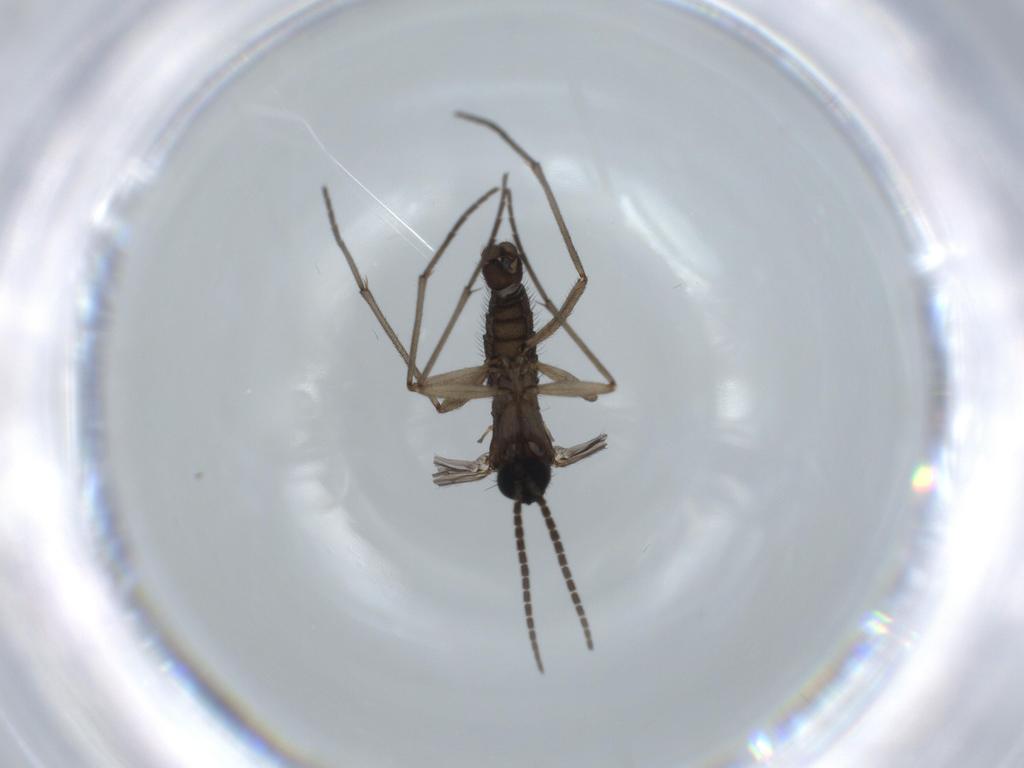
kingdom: Animalia
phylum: Arthropoda
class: Insecta
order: Diptera
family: Sciaridae
